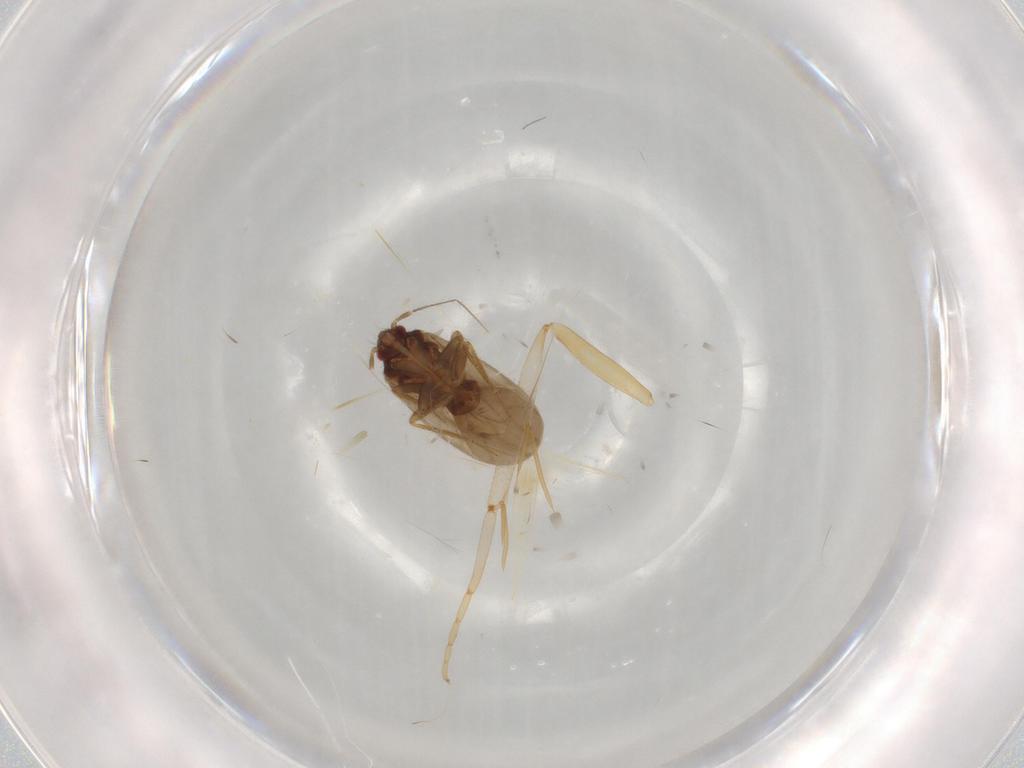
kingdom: Animalia
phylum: Arthropoda
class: Insecta
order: Hemiptera
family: Ceratocombidae
